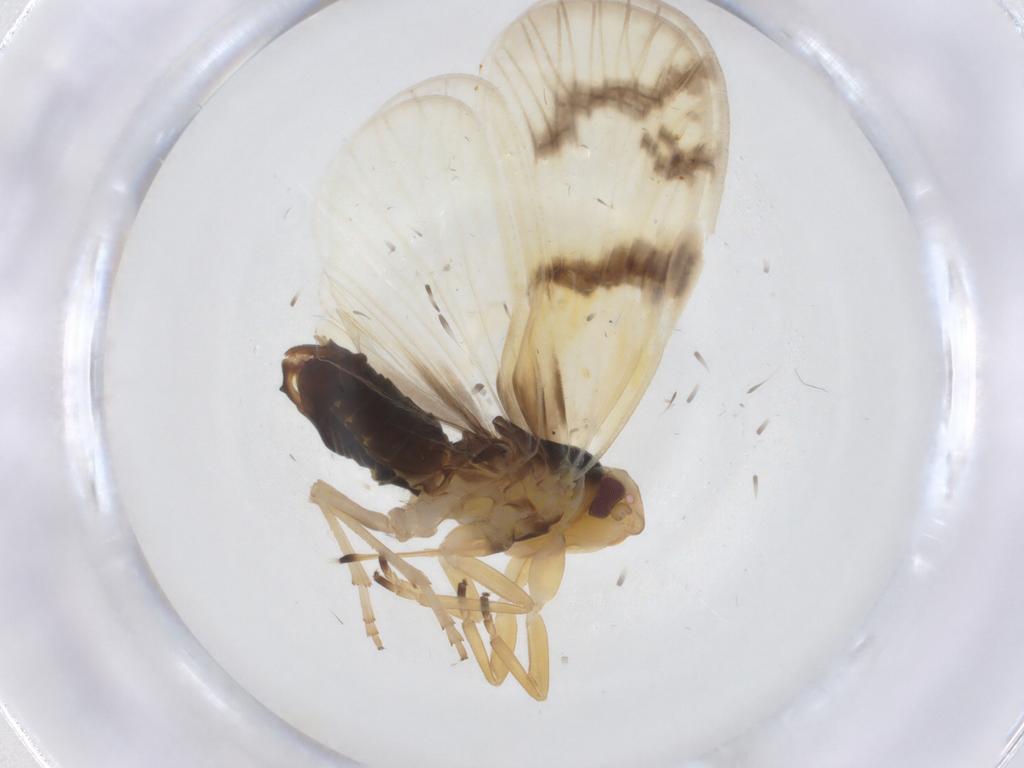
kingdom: Animalia
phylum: Arthropoda
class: Insecta
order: Hemiptera
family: Cixiidae
